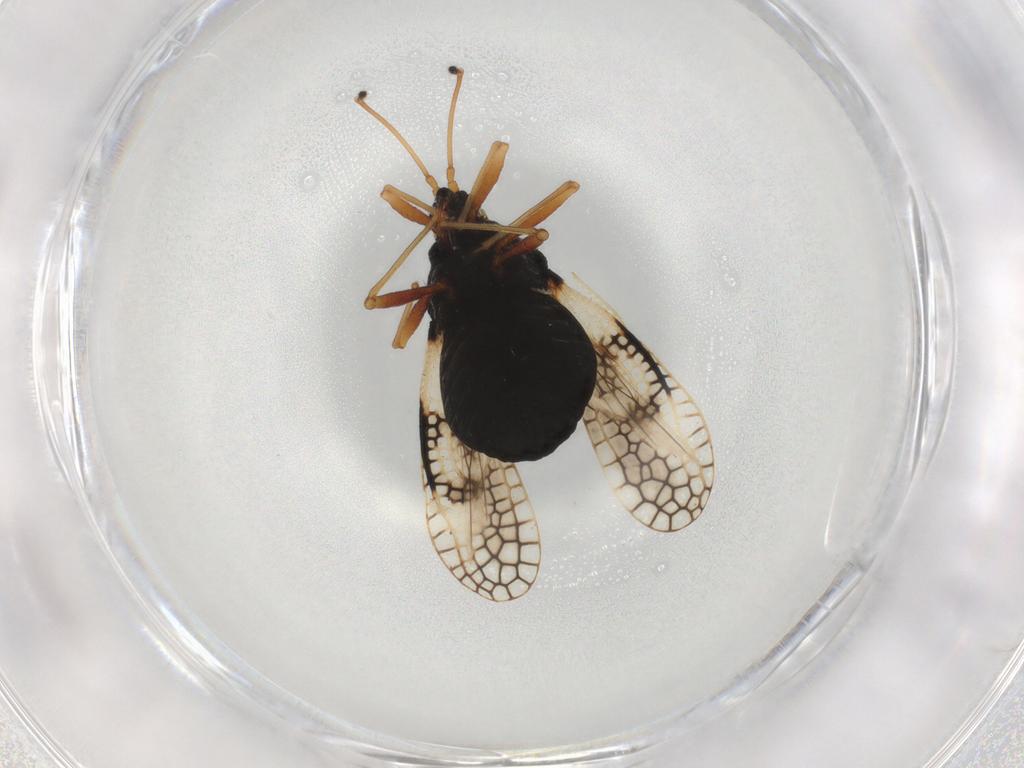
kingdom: Animalia
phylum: Arthropoda
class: Insecta
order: Hemiptera
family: Tingidae
